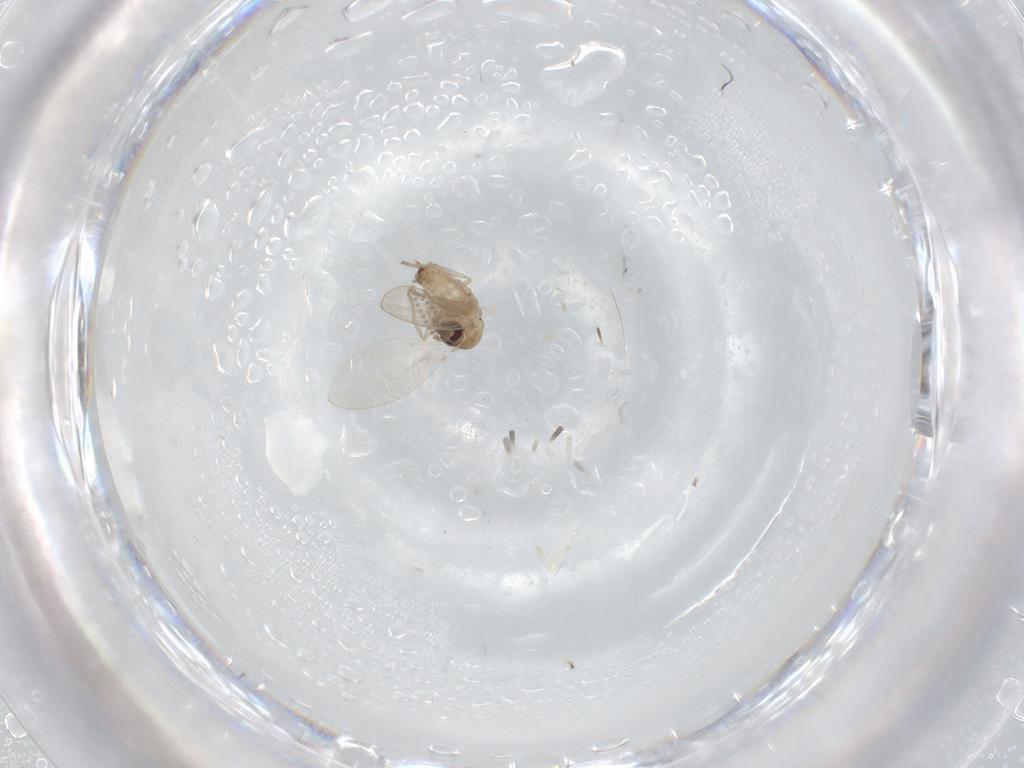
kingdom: Animalia
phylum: Arthropoda
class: Insecta
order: Diptera
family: Psychodidae
